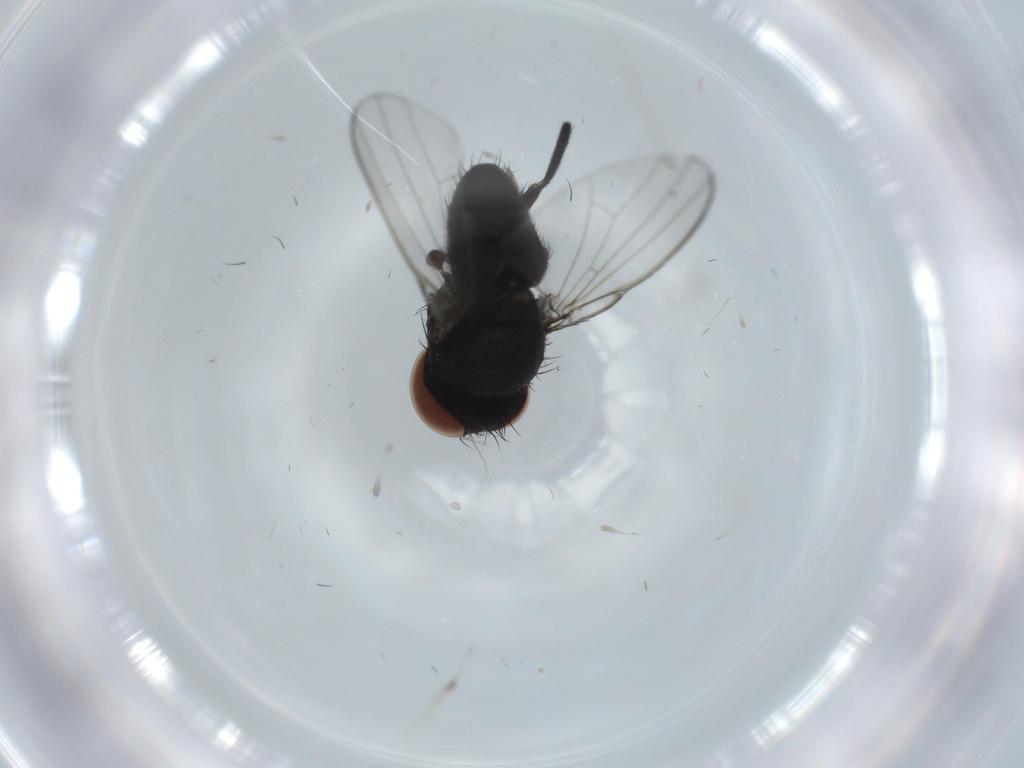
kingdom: Animalia
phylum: Arthropoda
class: Insecta
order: Diptera
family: Milichiidae
